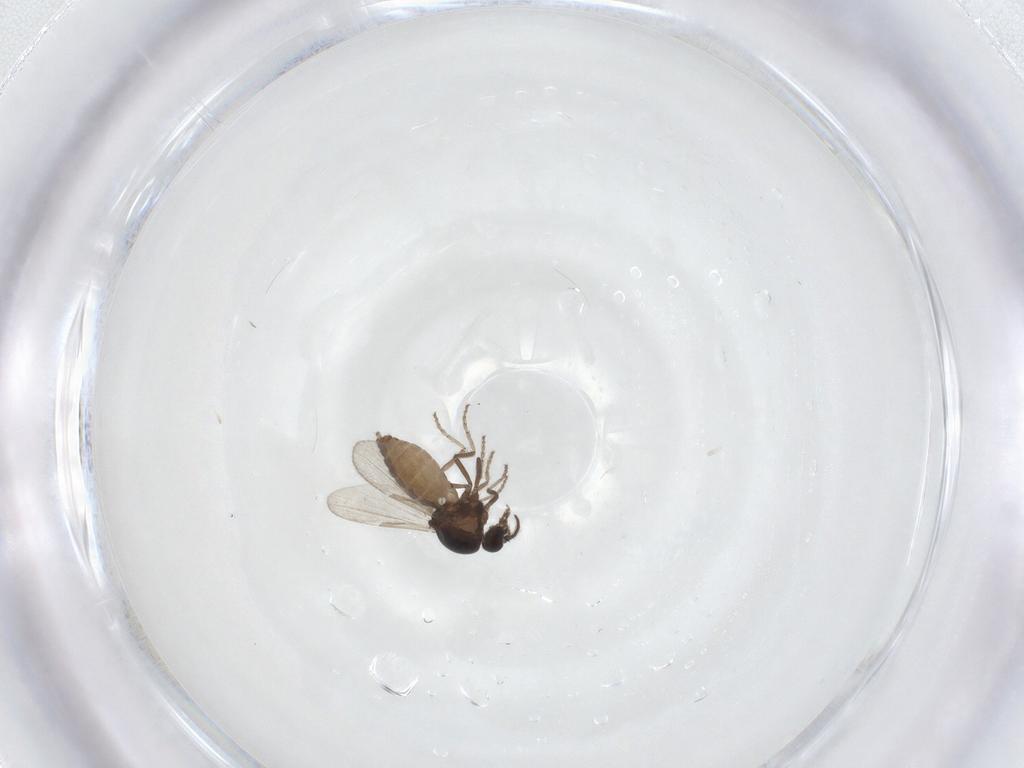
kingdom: Animalia
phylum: Arthropoda
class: Insecta
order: Diptera
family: Ceratopogonidae
